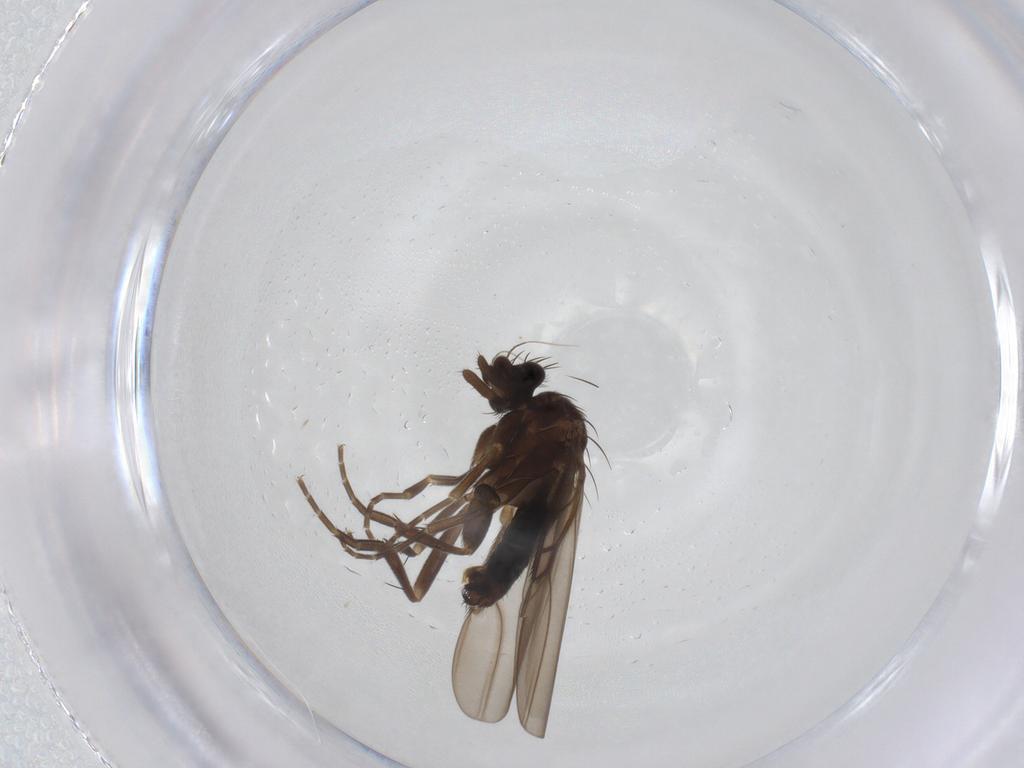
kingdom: Animalia
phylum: Arthropoda
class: Insecta
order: Diptera
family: Phoridae
